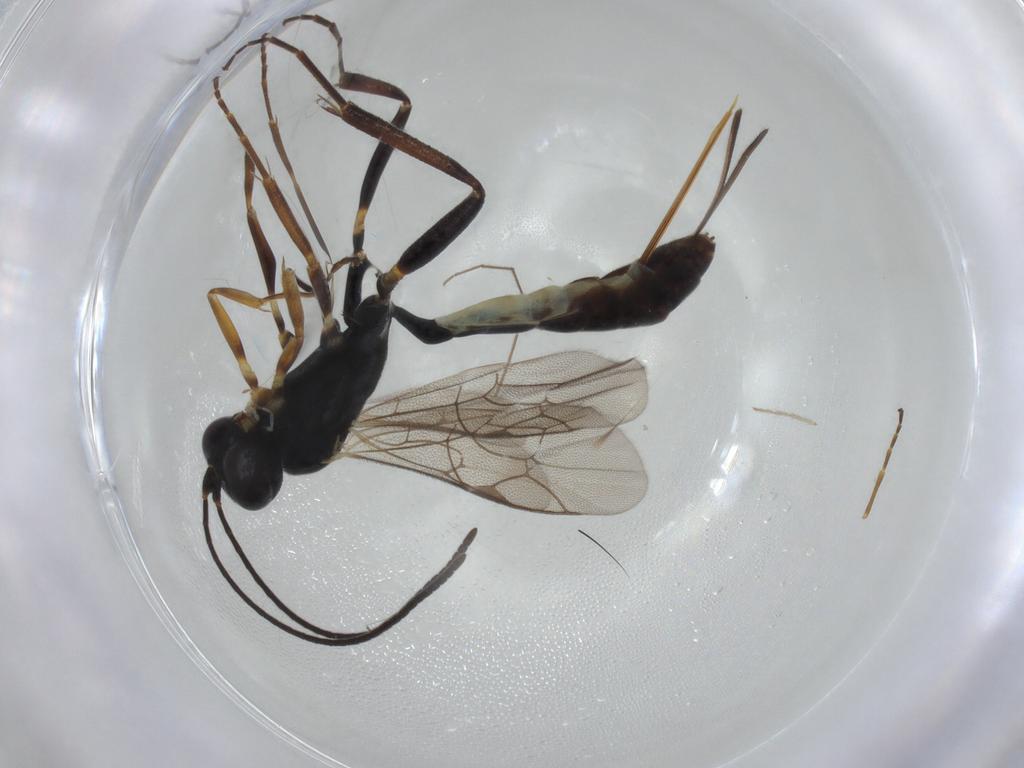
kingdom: Animalia
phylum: Arthropoda
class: Insecta
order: Hymenoptera
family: Ichneumonidae
